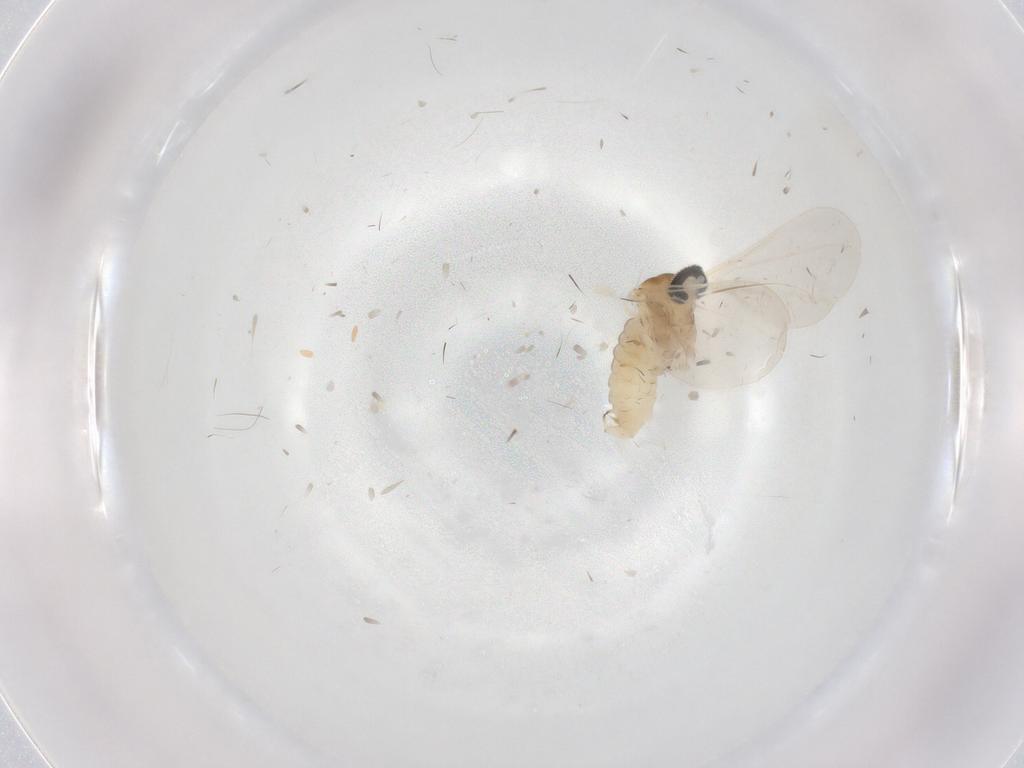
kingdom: Animalia
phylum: Arthropoda
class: Insecta
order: Diptera
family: Cecidomyiidae
